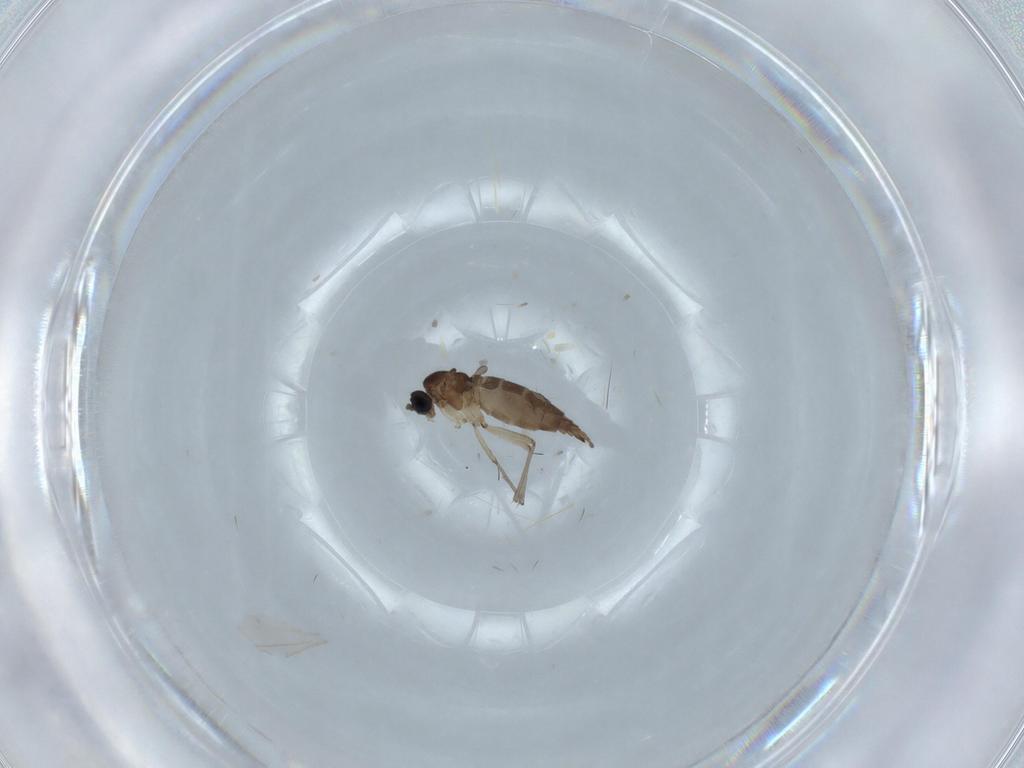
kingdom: Animalia
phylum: Arthropoda
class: Insecta
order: Diptera
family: Sciaridae
